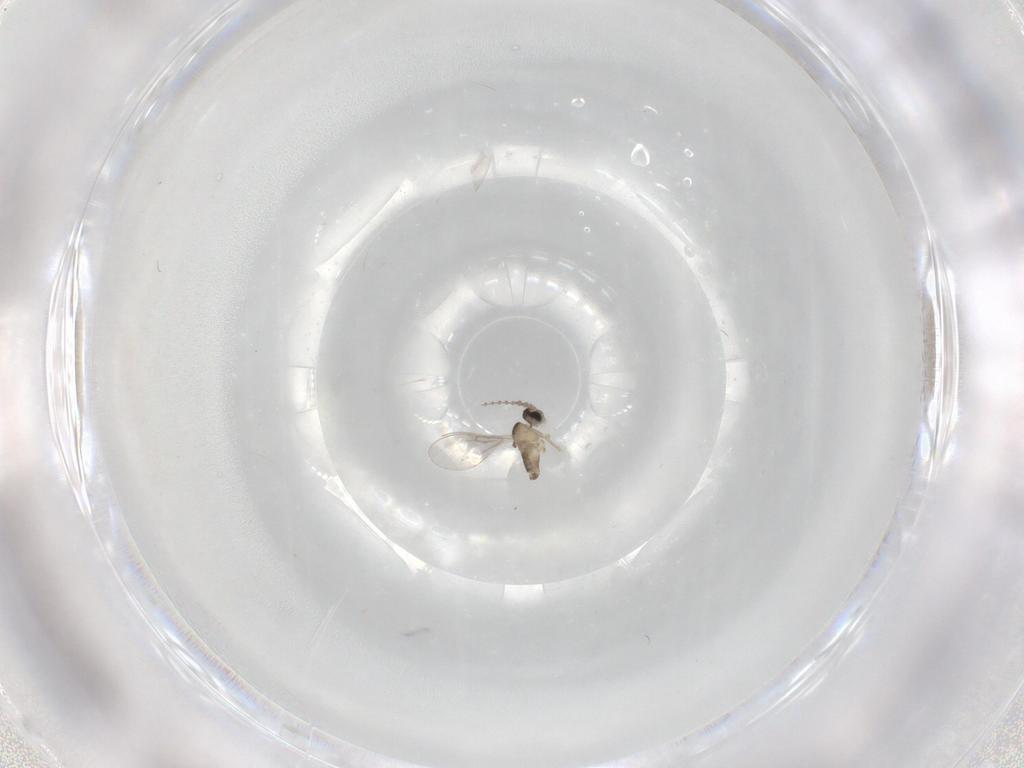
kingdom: Animalia
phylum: Arthropoda
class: Insecta
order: Diptera
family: Cecidomyiidae
